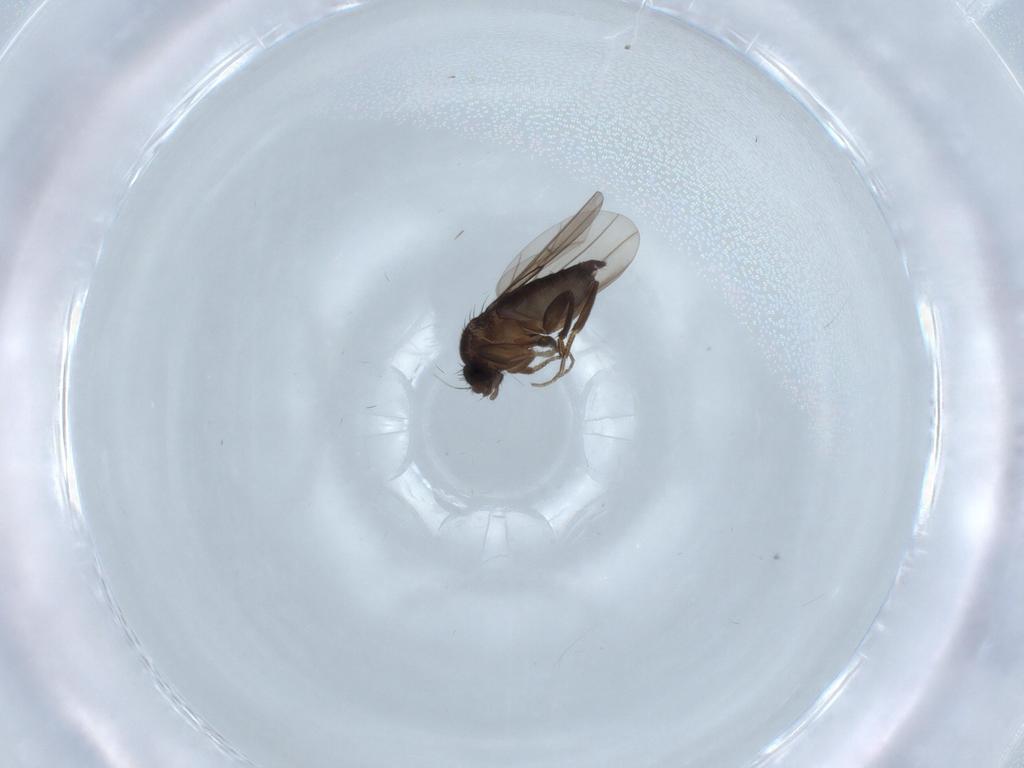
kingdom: Animalia
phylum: Arthropoda
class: Insecta
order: Diptera
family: Phoridae
